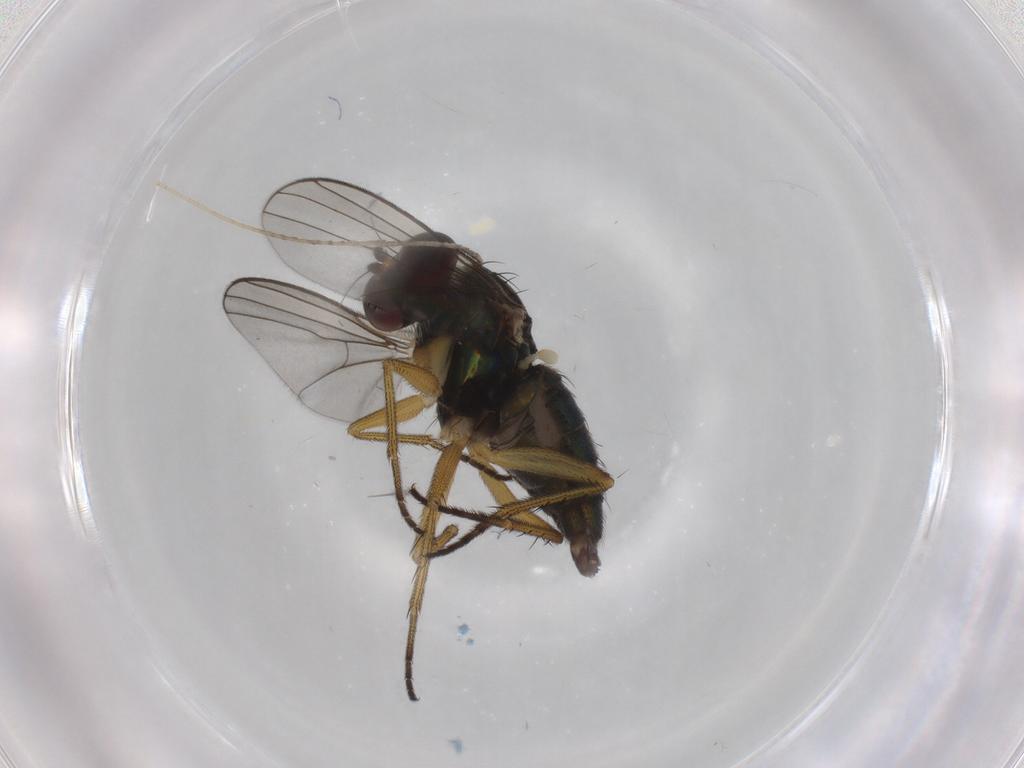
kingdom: Animalia
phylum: Arthropoda
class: Insecta
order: Diptera
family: Dolichopodidae
